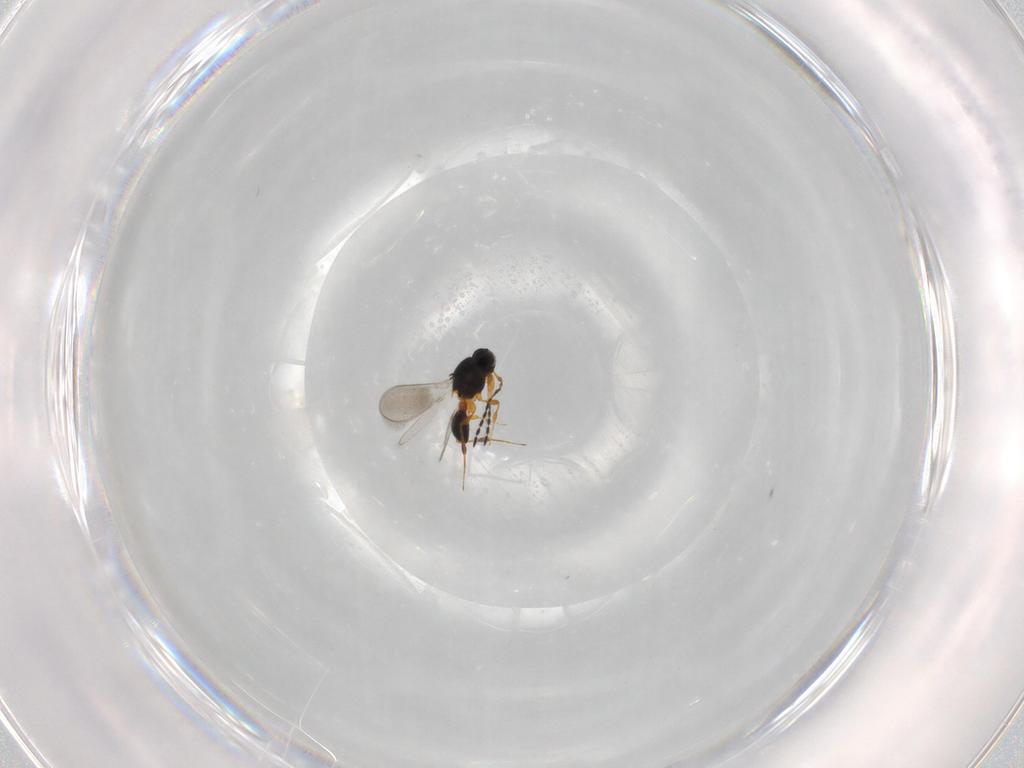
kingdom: Animalia
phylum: Arthropoda
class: Insecta
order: Hymenoptera
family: Platygastridae
